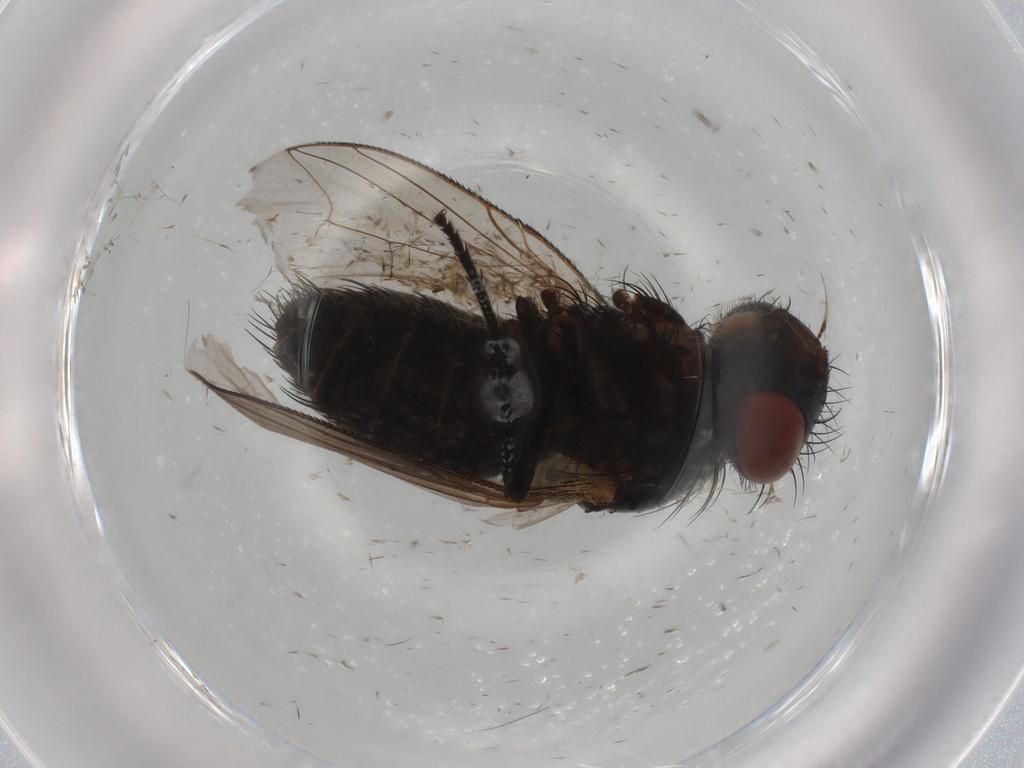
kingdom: Animalia
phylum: Arthropoda
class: Insecta
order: Diptera
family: Sarcophagidae
